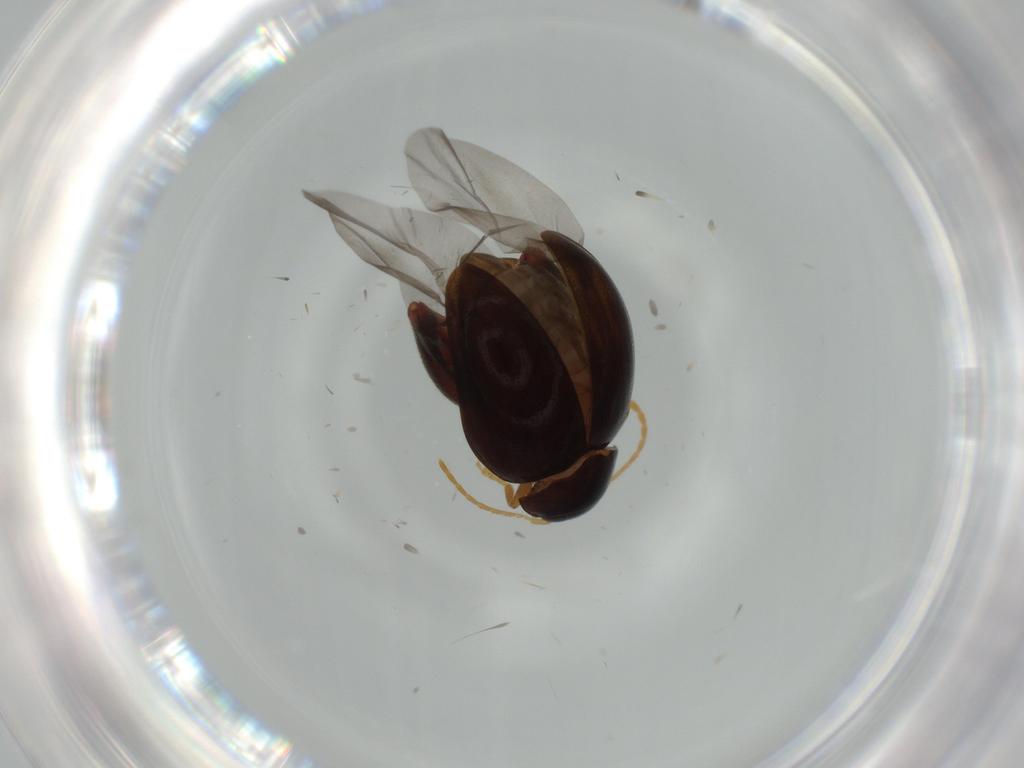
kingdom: Animalia
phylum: Arthropoda
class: Insecta
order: Coleoptera
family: Chrysomelidae
